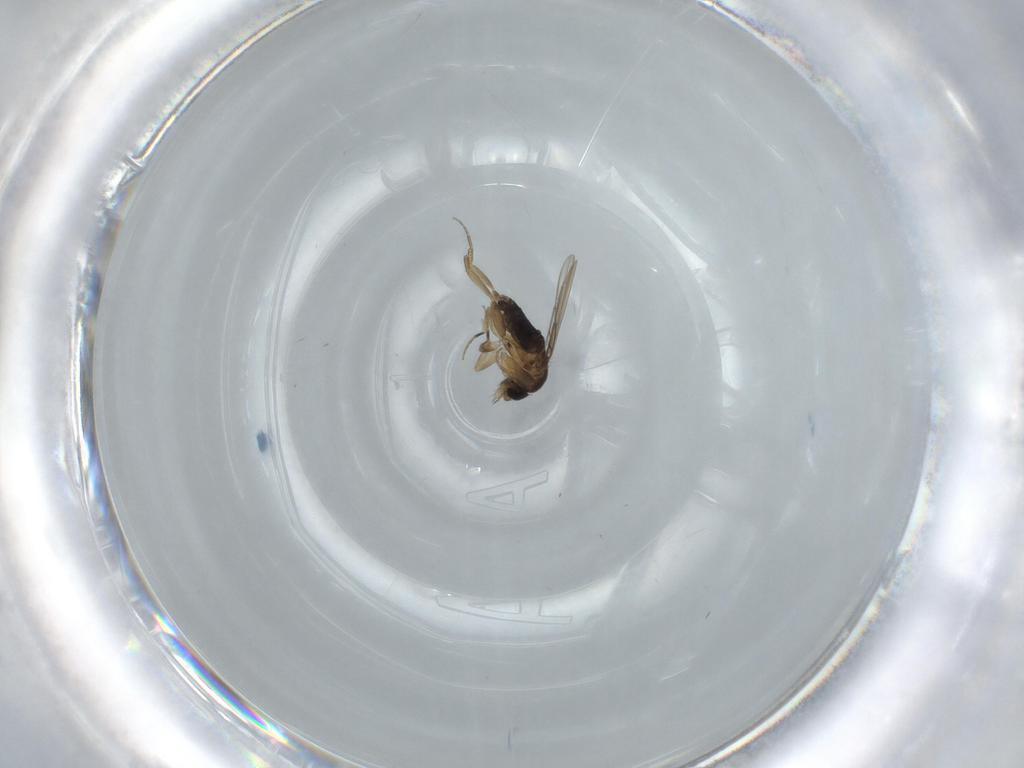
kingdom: Animalia
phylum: Arthropoda
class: Insecta
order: Diptera
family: Phoridae
